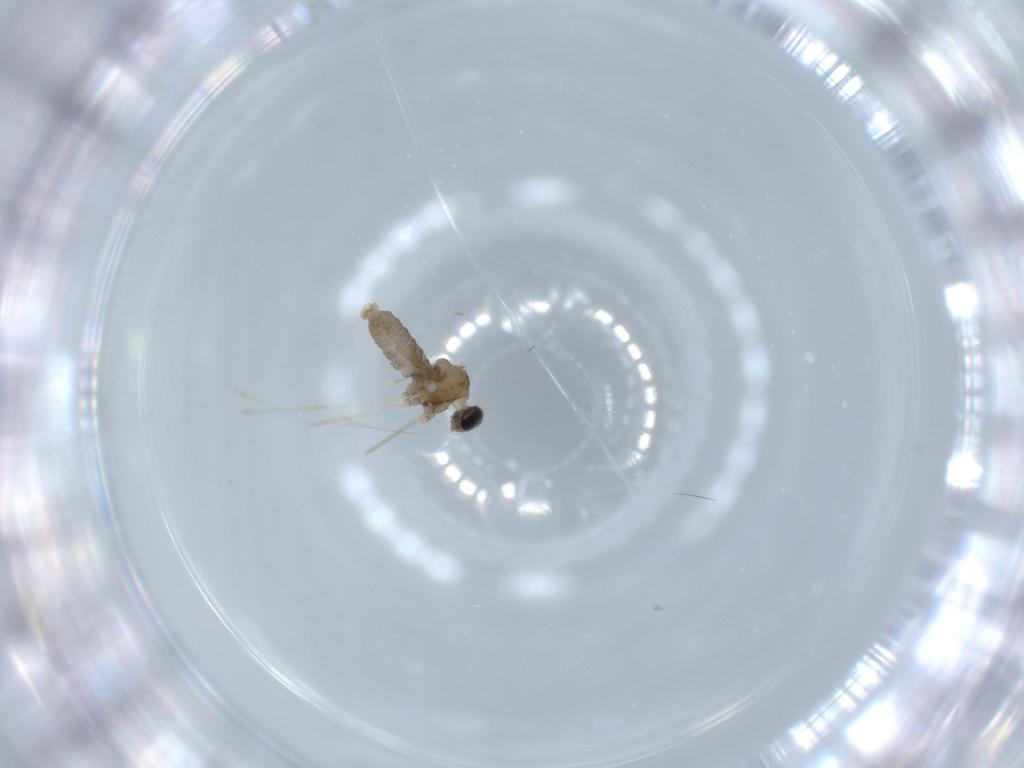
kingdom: Animalia
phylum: Arthropoda
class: Insecta
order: Diptera
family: Cecidomyiidae
